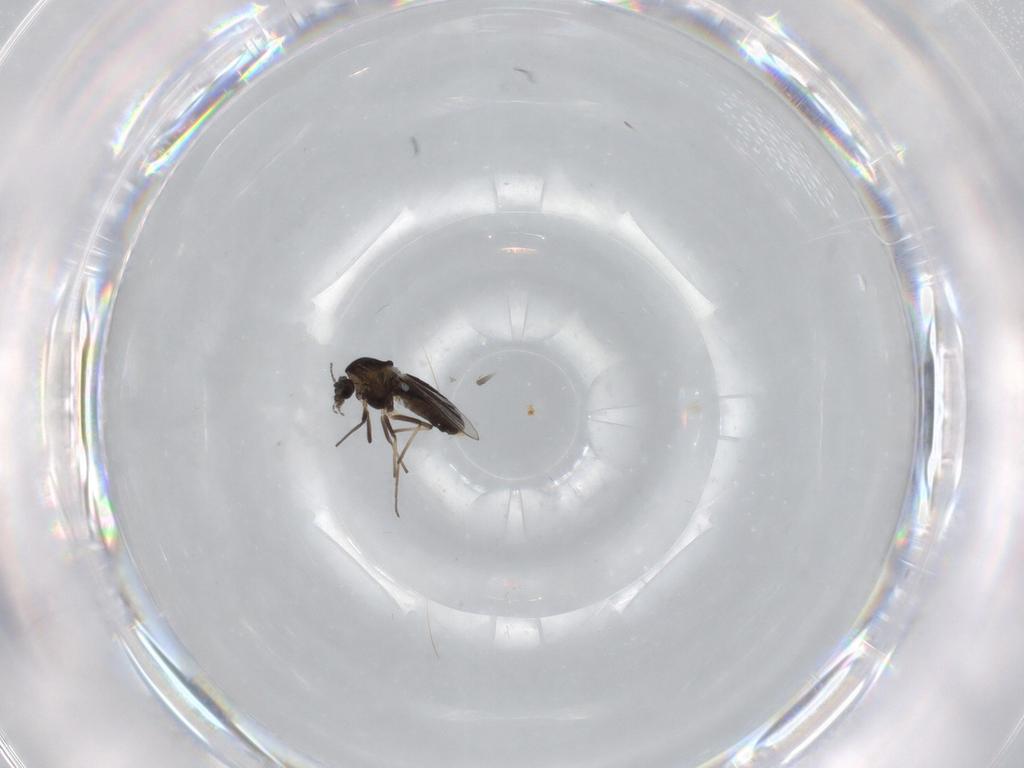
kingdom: Animalia
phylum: Arthropoda
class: Insecta
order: Diptera
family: Chironomidae
